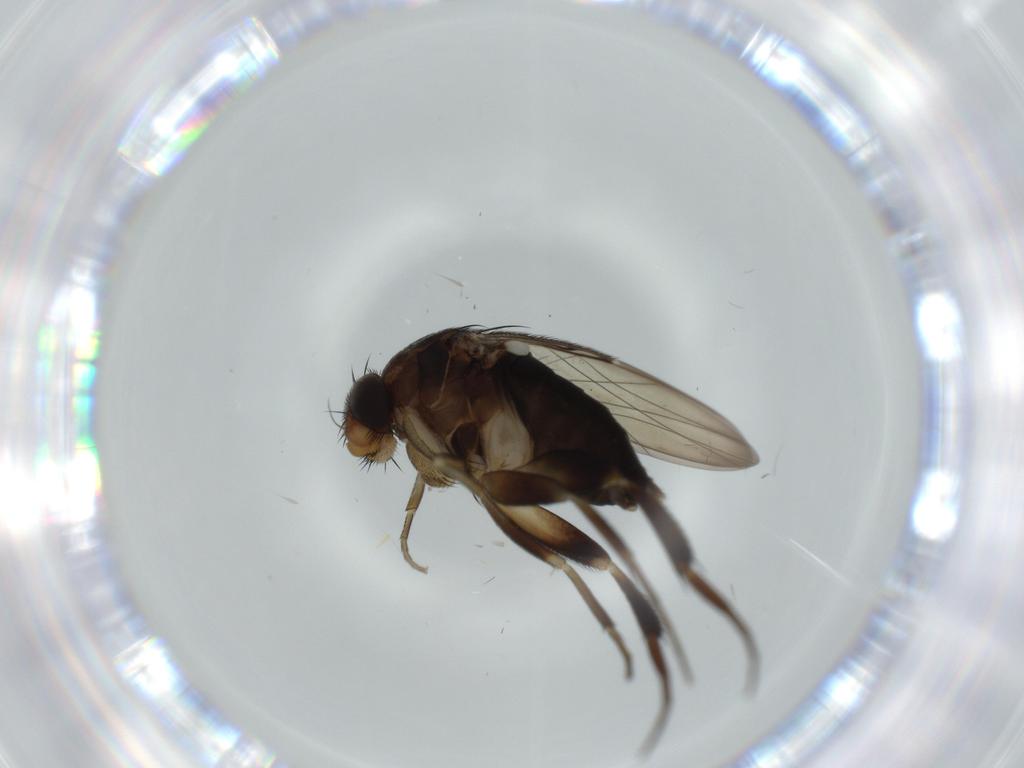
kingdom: Animalia
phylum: Arthropoda
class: Insecta
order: Diptera
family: Phoridae
